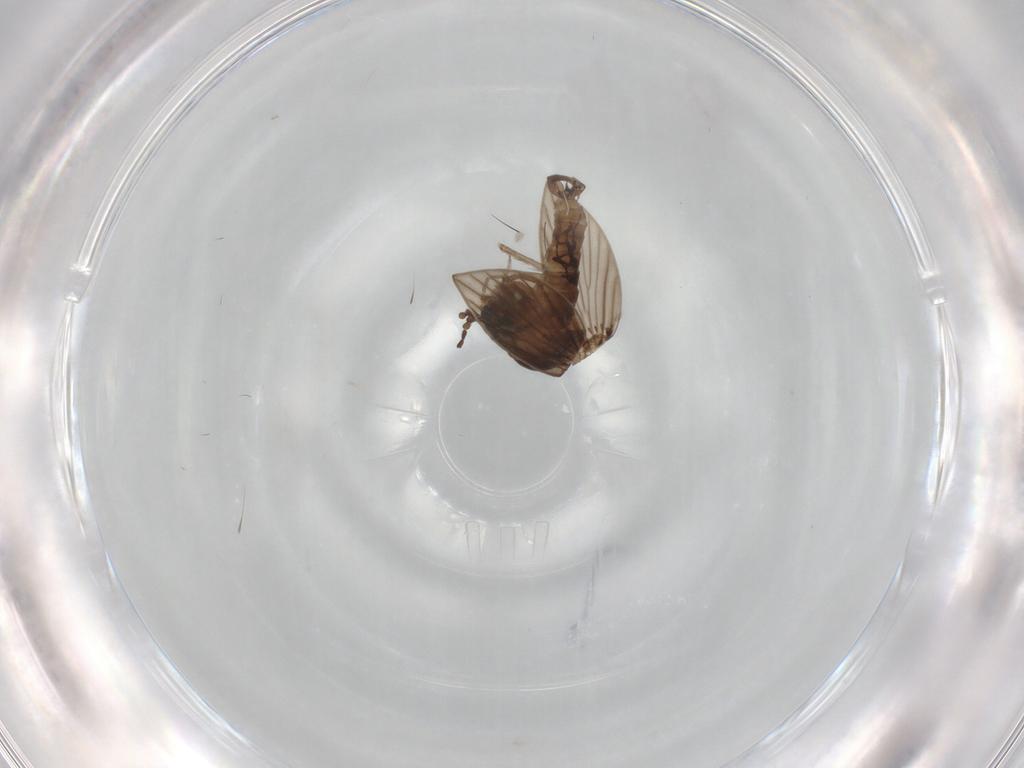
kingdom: Animalia
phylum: Arthropoda
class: Insecta
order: Diptera
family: Psychodidae
